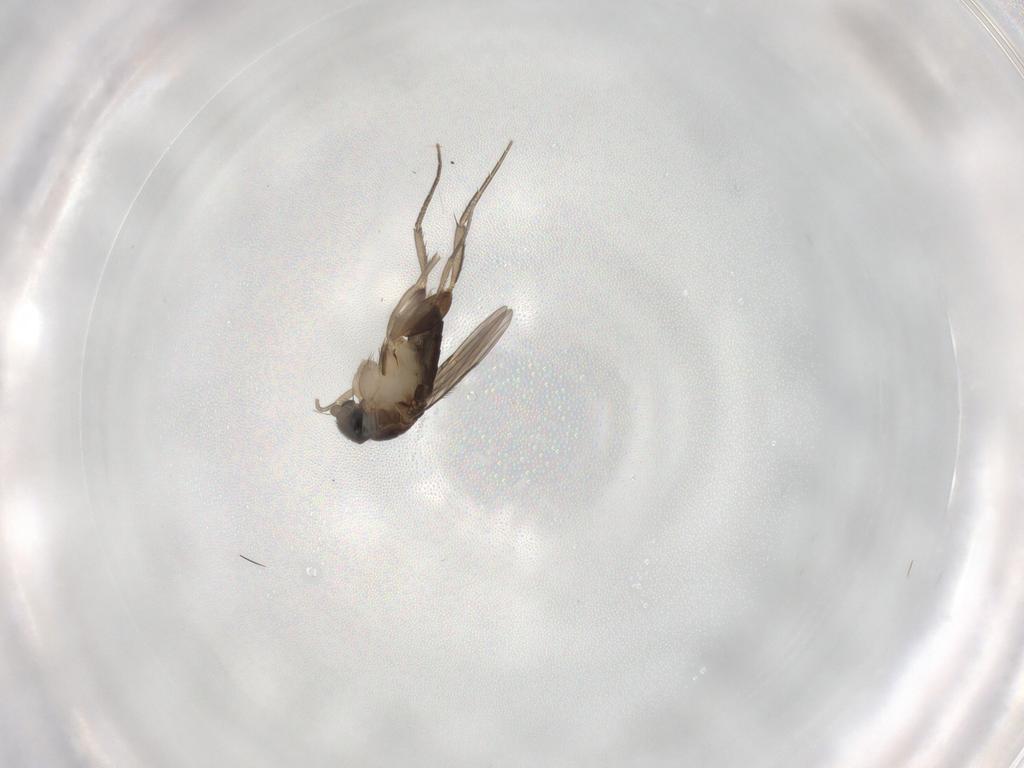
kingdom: Animalia
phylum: Arthropoda
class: Insecta
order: Diptera
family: Phoridae
